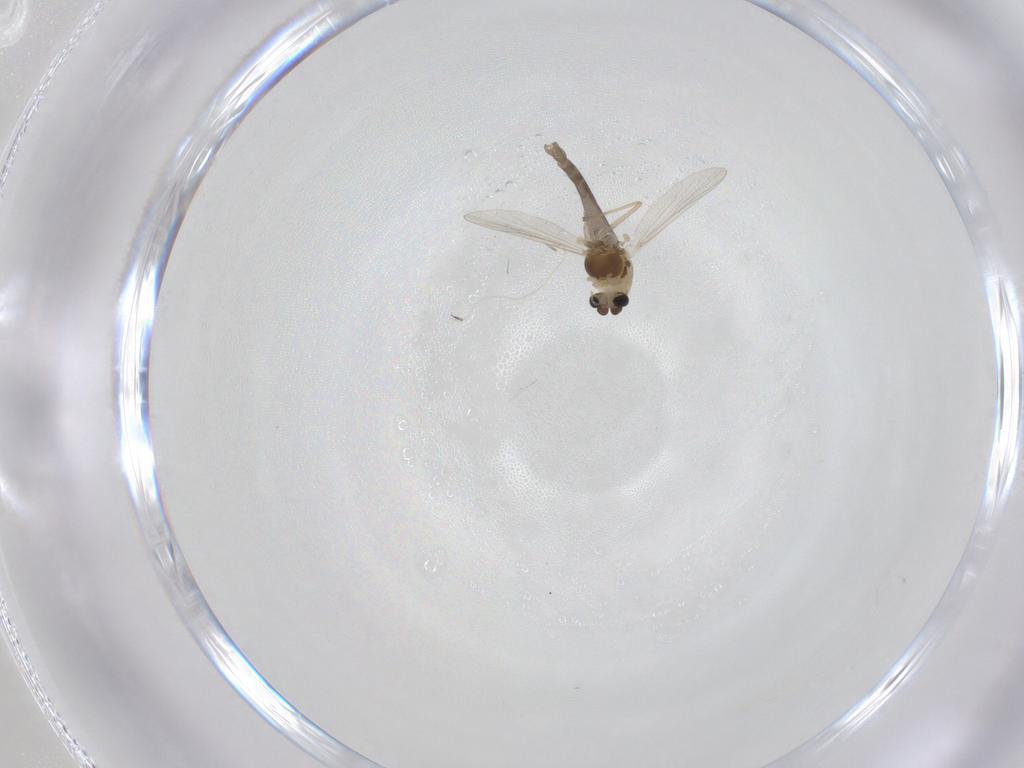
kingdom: Animalia
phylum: Arthropoda
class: Insecta
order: Diptera
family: Chironomidae
